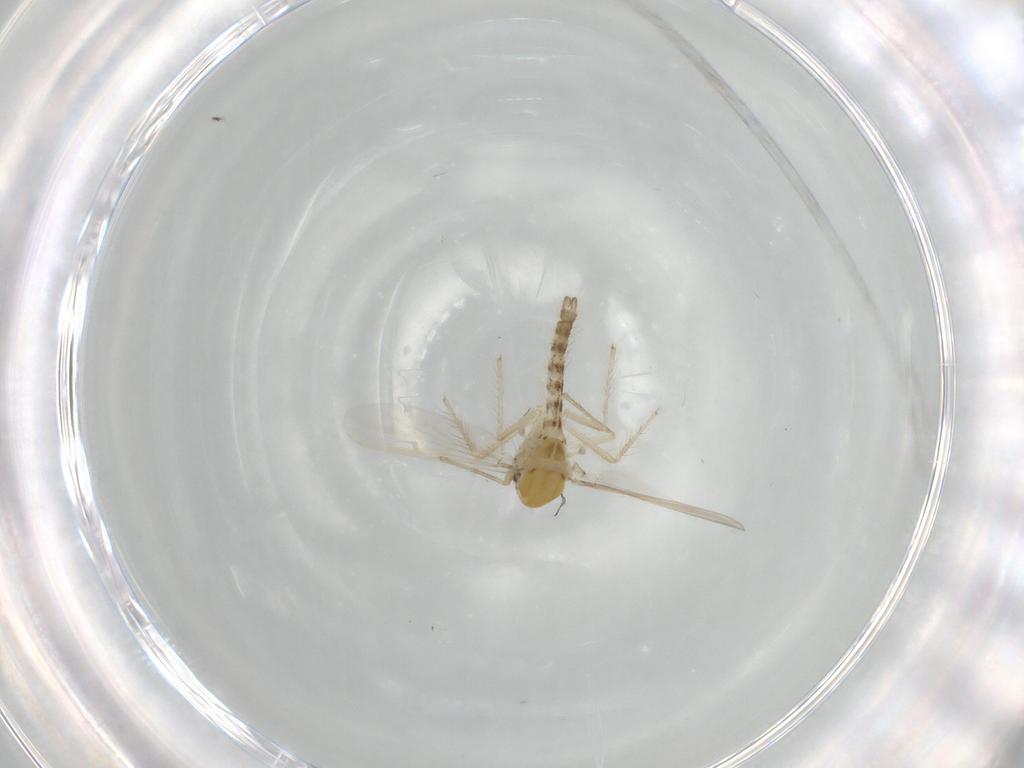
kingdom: Animalia
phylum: Arthropoda
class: Insecta
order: Diptera
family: Chironomidae
